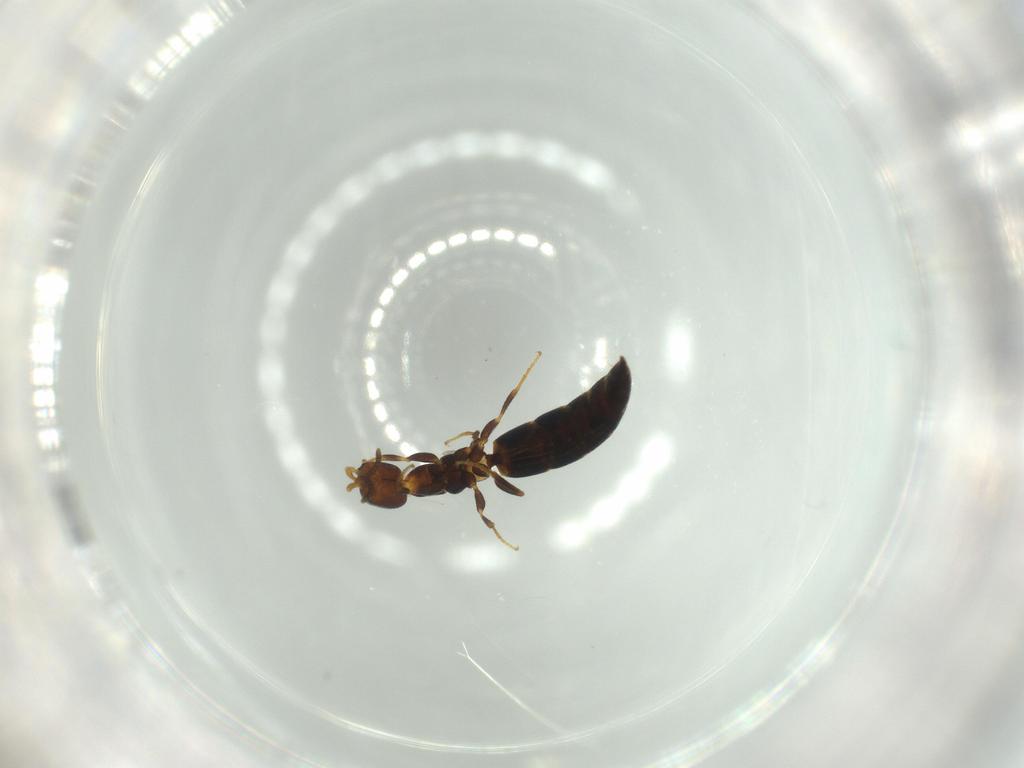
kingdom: Animalia
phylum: Arthropoda
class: Insecta
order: Hymenoptera
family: Bethylidae
